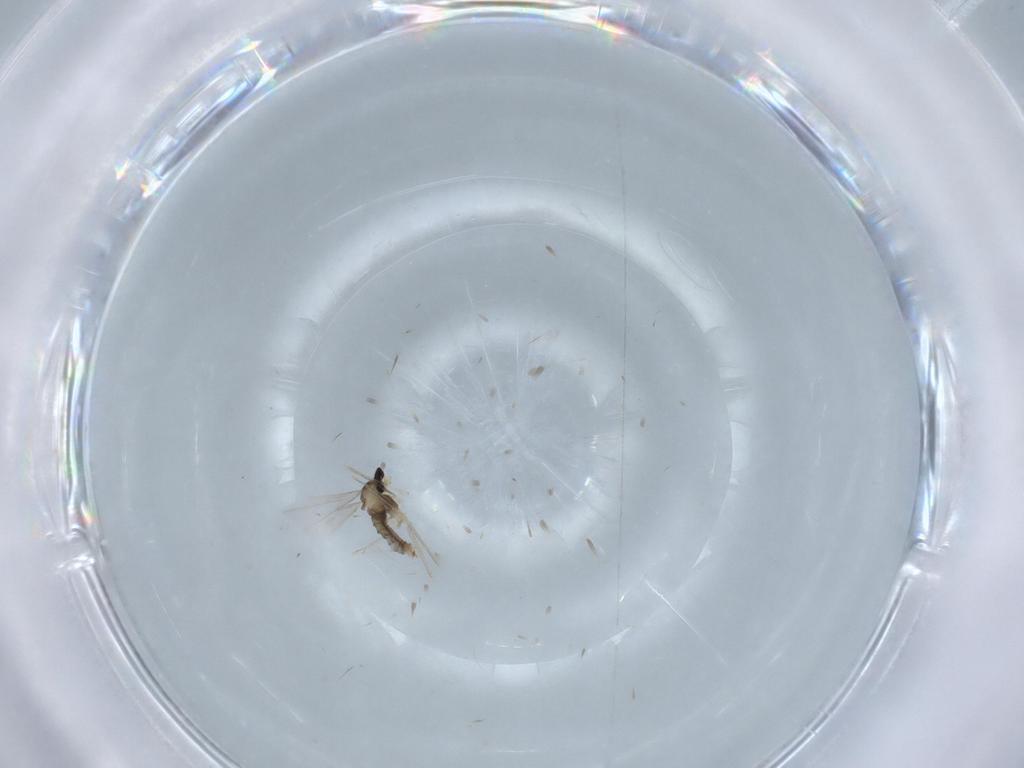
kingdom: Animalia
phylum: Arthropoda
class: Insecta
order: Diptera
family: Cecidomyiidae
